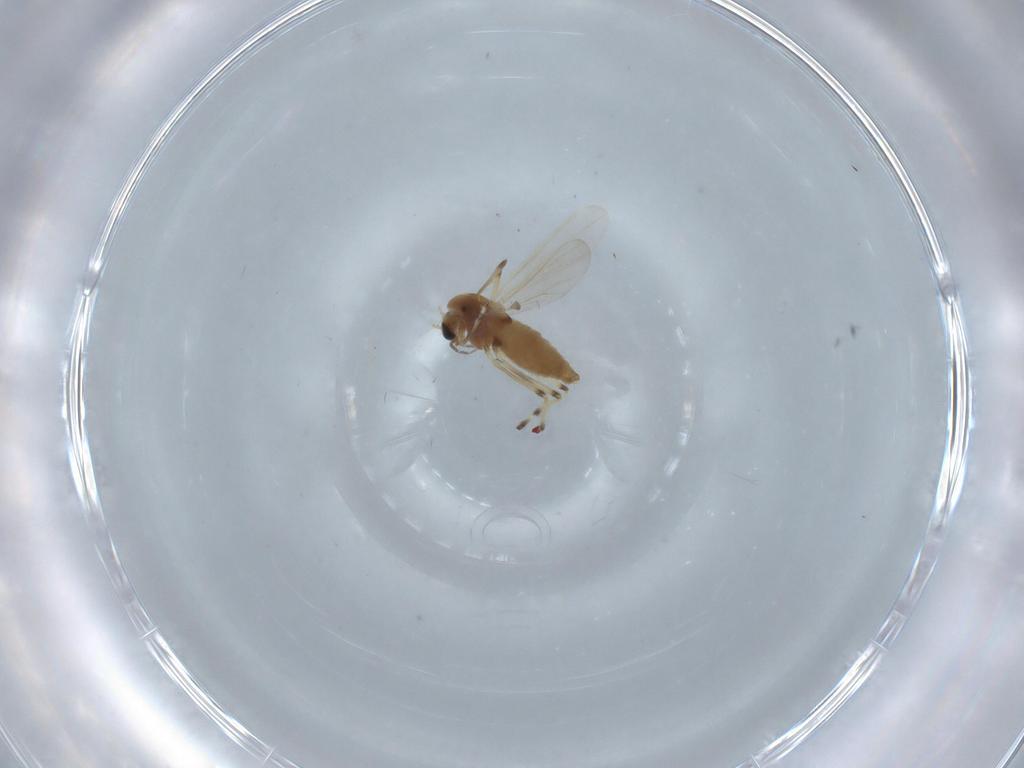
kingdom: Animalia
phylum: Arthropoda
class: Insecta
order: Diptera
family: Chironomidae
